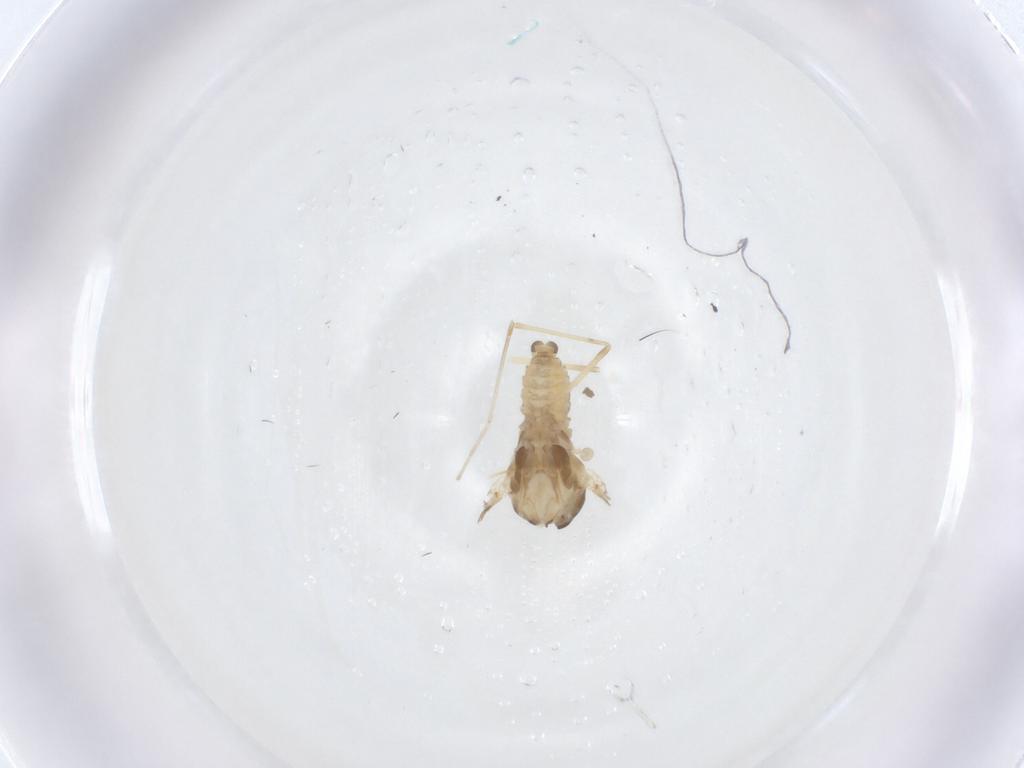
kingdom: Animalia
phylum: Arthropoda
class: Insecta
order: Diptera
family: Cecidomyiidae
